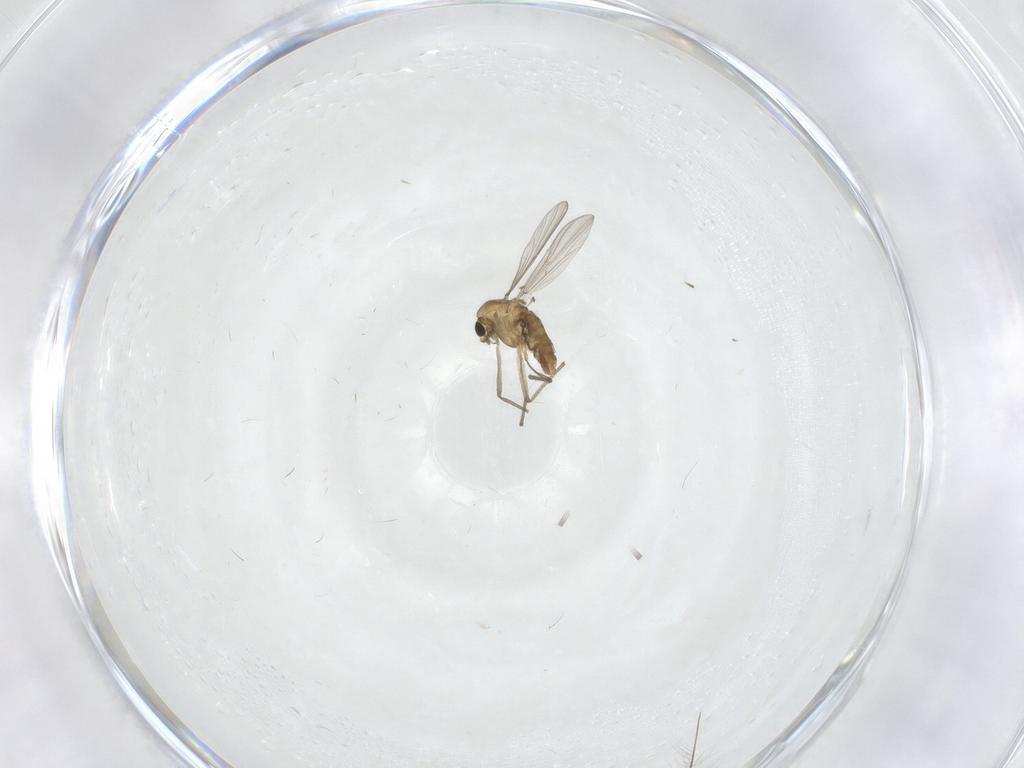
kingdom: Animalia
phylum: Arthropoda
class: Insecta
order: Diptera
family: Chironomidae
